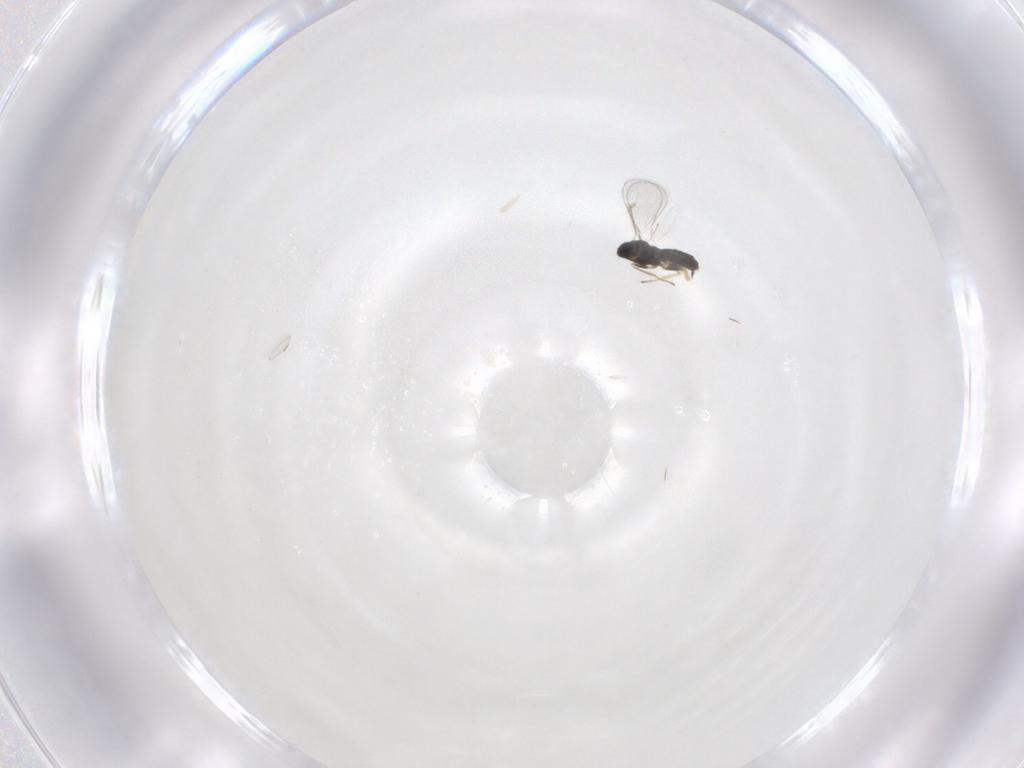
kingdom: Animalia
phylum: Arthropoda
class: Insecta
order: Hymenoptera
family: Eulophidae
